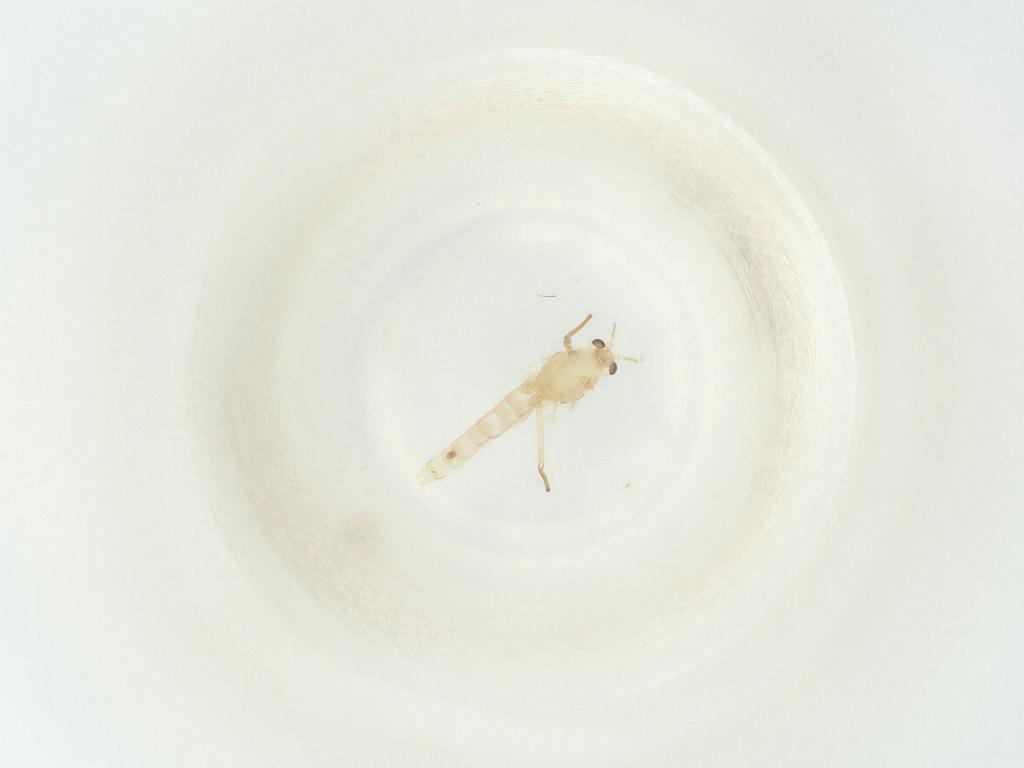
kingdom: Animalia
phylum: Arthropoda
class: Insecta
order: Diptera
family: Chironomidae
